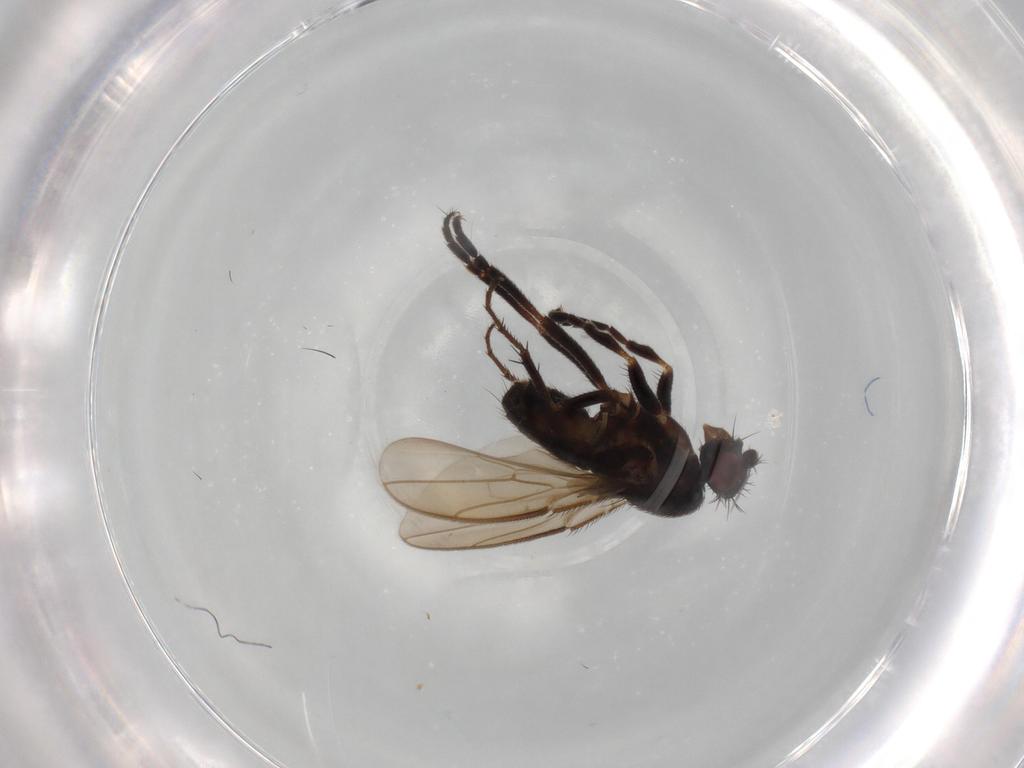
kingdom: Animalia
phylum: Arthropoda
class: Insecta
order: Diptera
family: Sphaeroceridae
